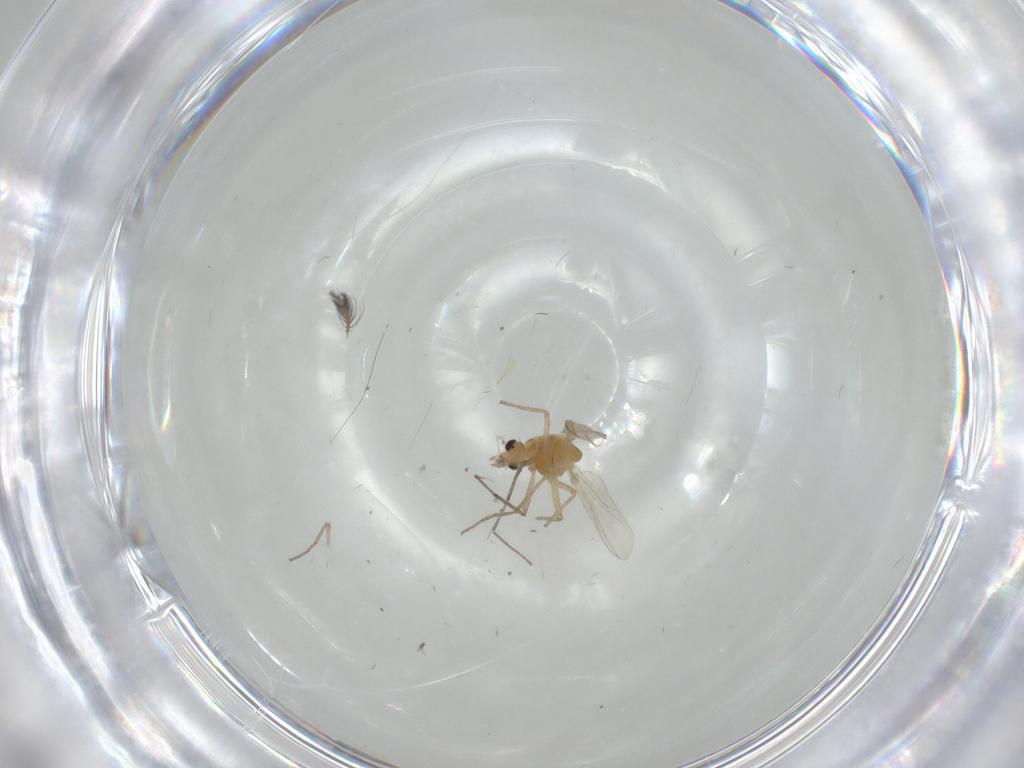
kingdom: Animalia
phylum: Arthropoda
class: Insecta
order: Diptera
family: Chironomidae
